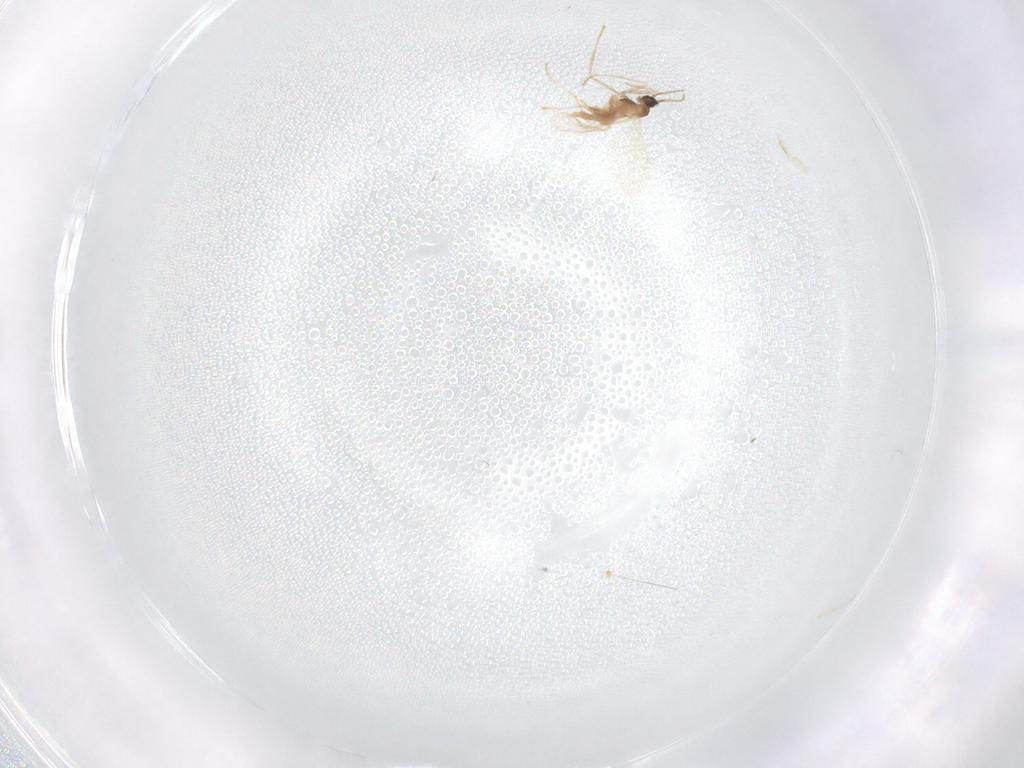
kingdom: Animalia
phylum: Arthropoda
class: Insecta
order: Diptera
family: Cecidomyiidae
